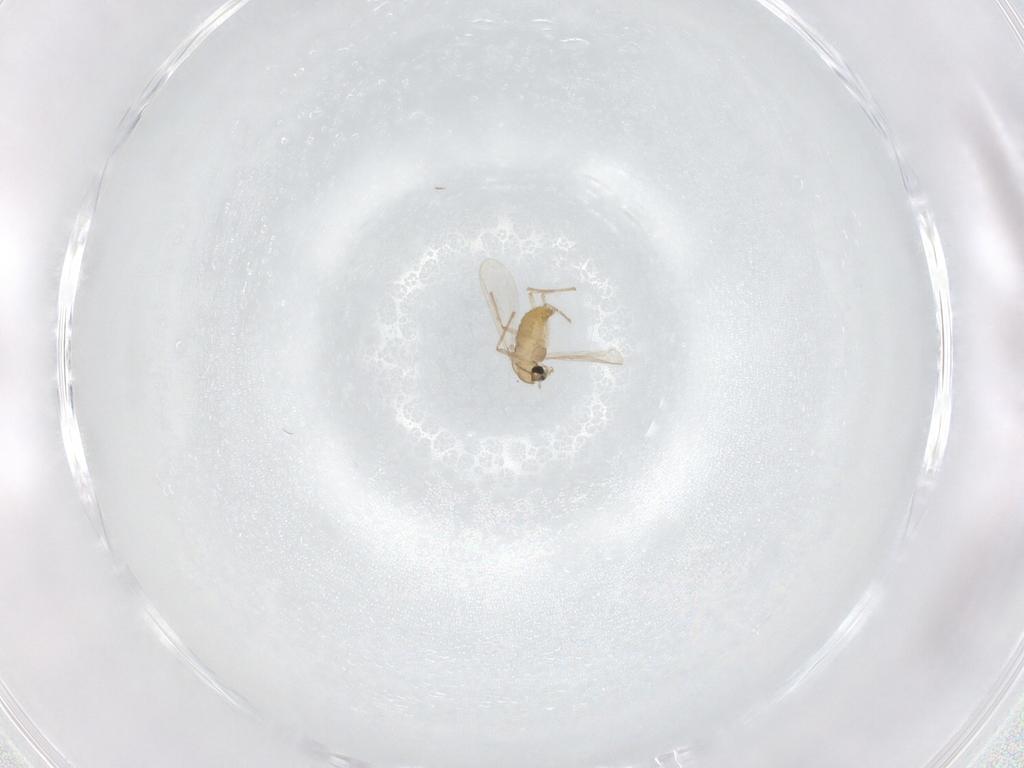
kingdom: Animalia
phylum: Arthropoda
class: Insecta
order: Diptera
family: Chironomidae
